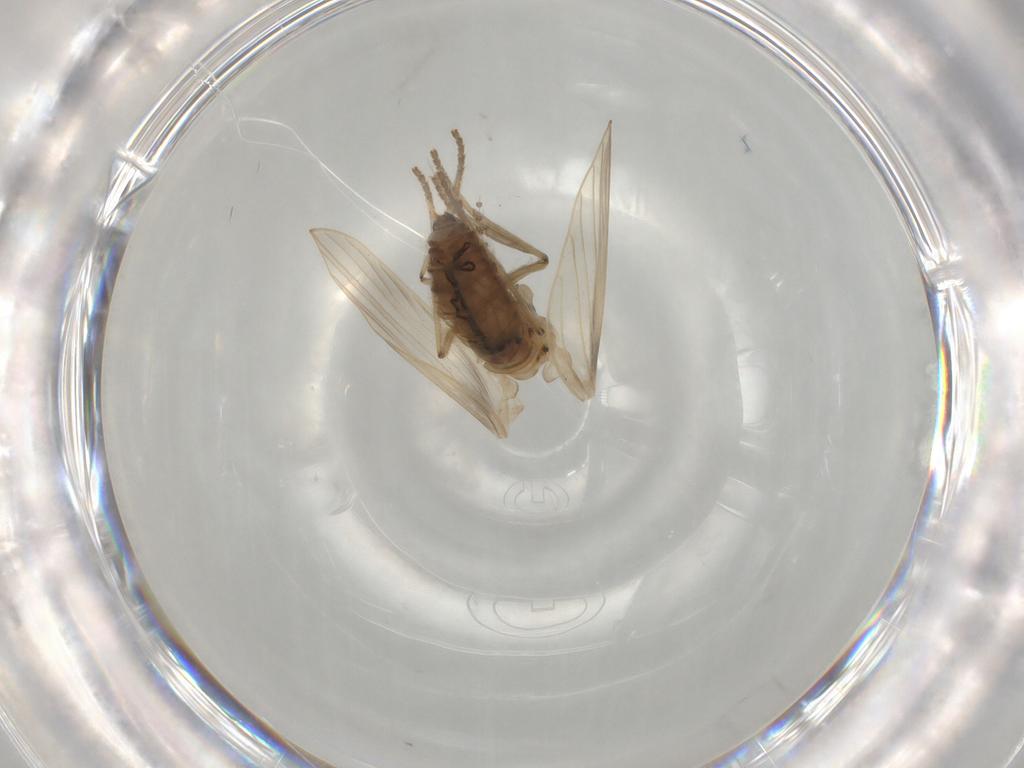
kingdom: Animalia
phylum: Arthropoda
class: Insecta
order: Diptera
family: Psychodidae
